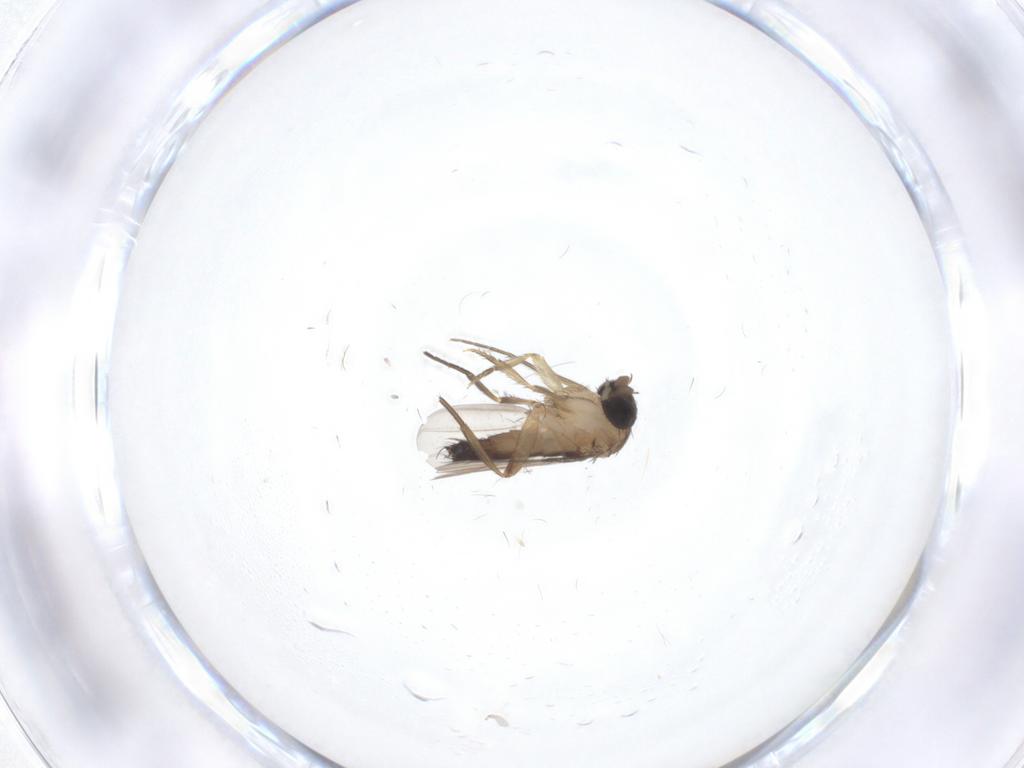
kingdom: Animalia
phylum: Arthropoda
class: Insecta
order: Diptera
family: Phoridae
